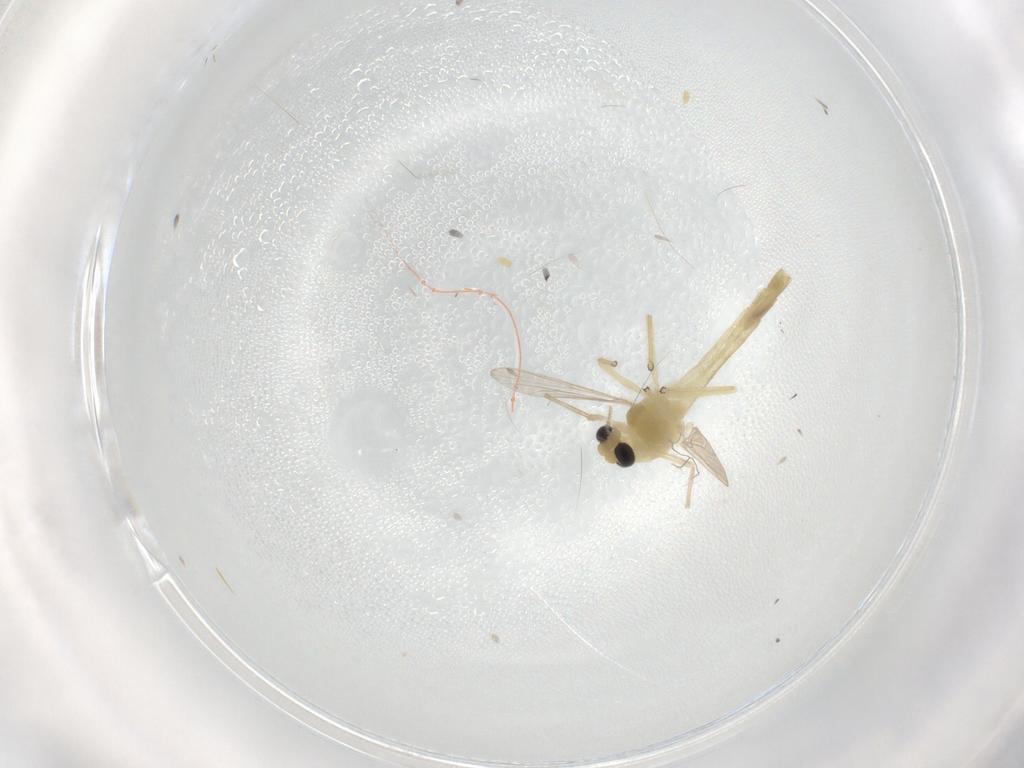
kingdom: Animalia
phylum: Arthropoda
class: Insecta
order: Diptera
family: Chironomidae
